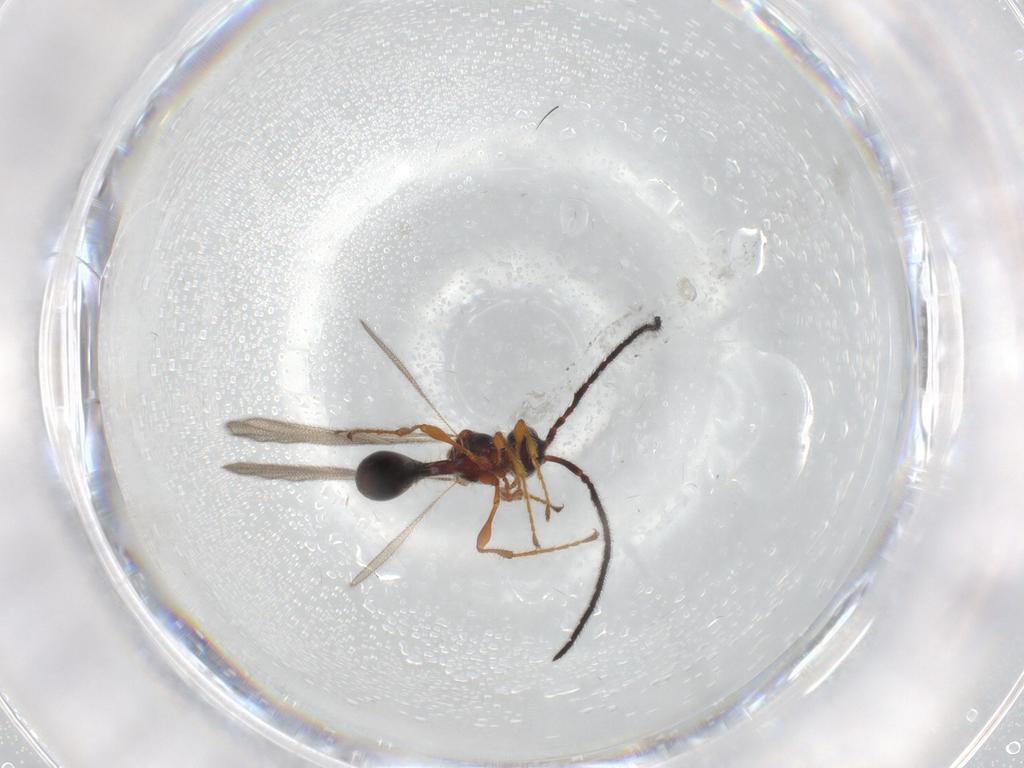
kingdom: Animalia
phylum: Arthropoda
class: Insecta
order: Hymenoptera
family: Diapriidae
